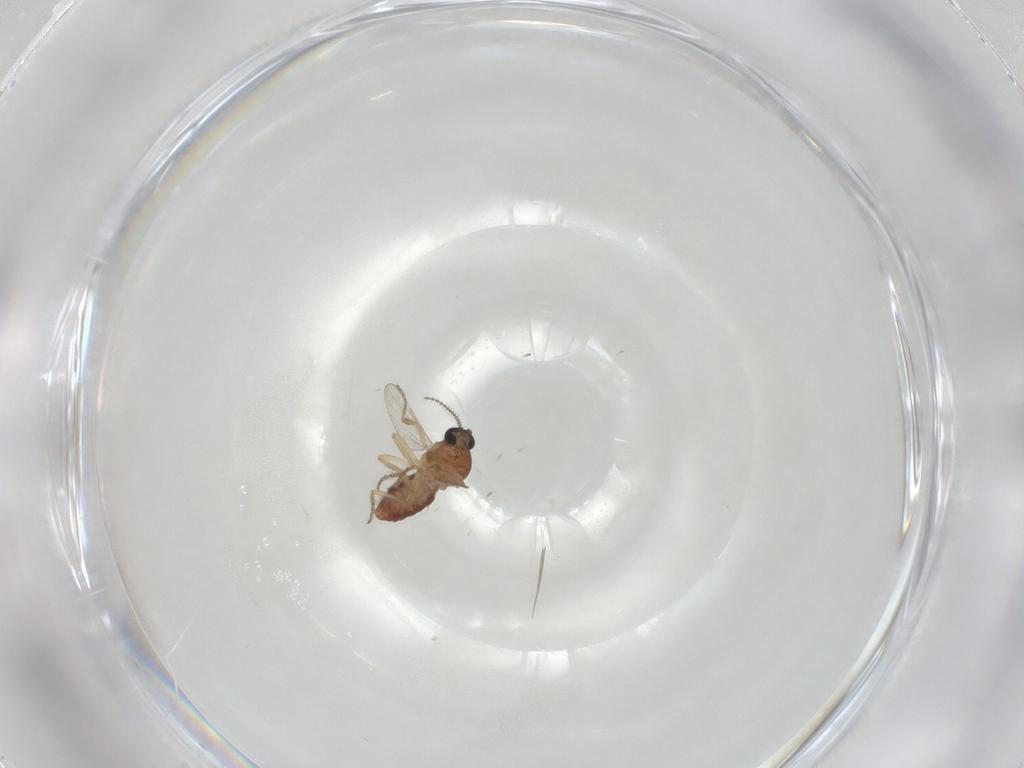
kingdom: Animalia
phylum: Arthropoda
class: Insecta
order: Diptera
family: Ceratopogonidae
